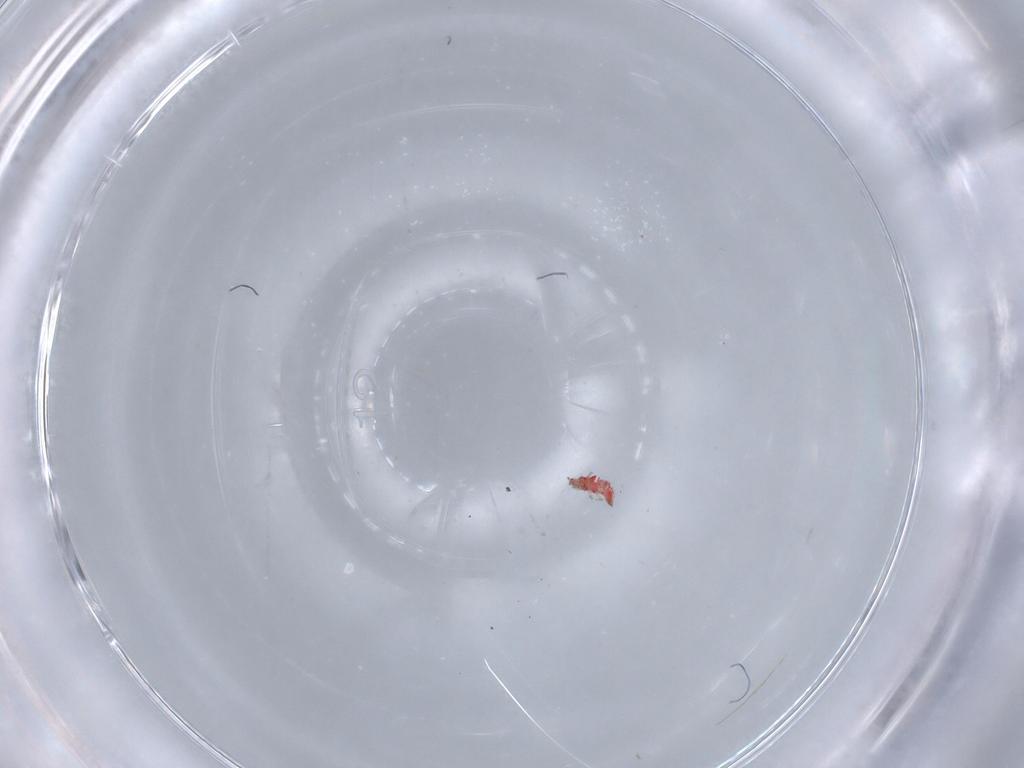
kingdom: Animalia
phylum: Arthropoda
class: Insecta
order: Thysanoptera
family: Phlaeothripidae
